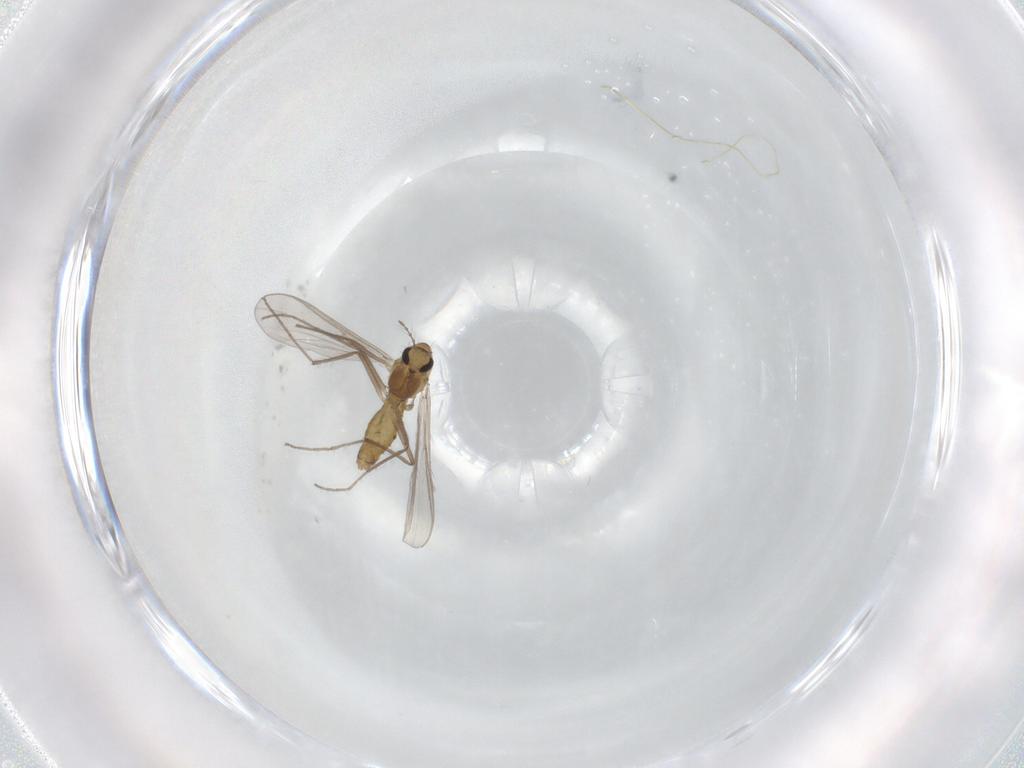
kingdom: Animalia
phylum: Arthropoda
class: Insecta
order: Diptera
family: Chironomidae
